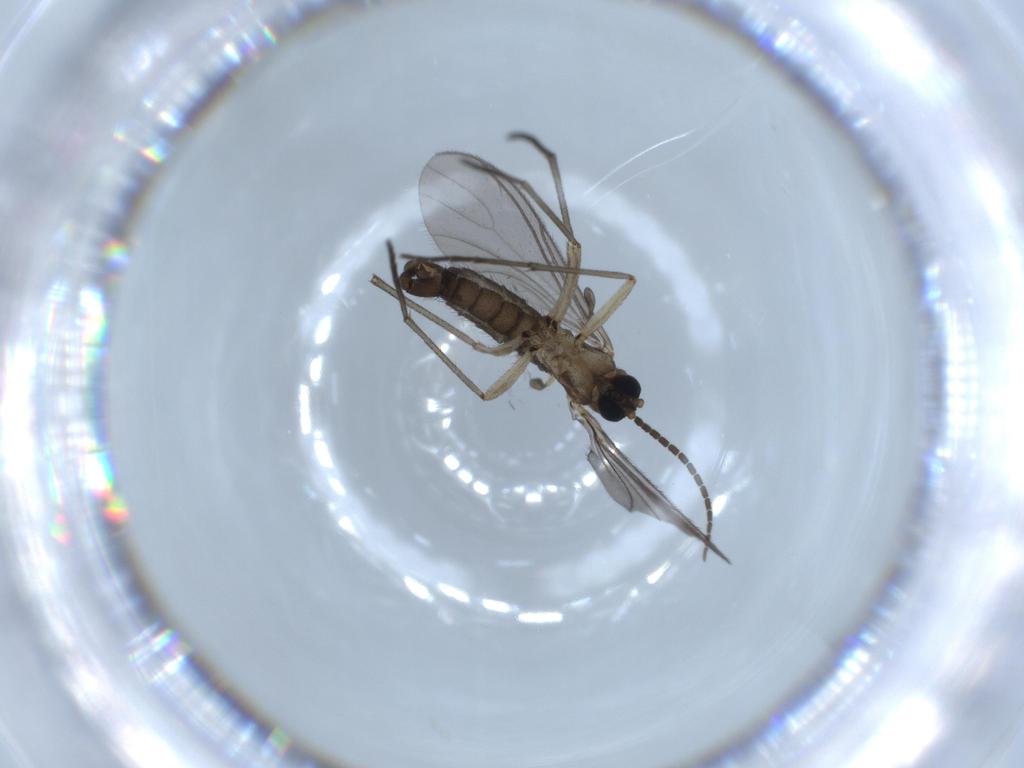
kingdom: Animalia
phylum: Arthropoda
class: Insecta
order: Diptera
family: Sciaridae
